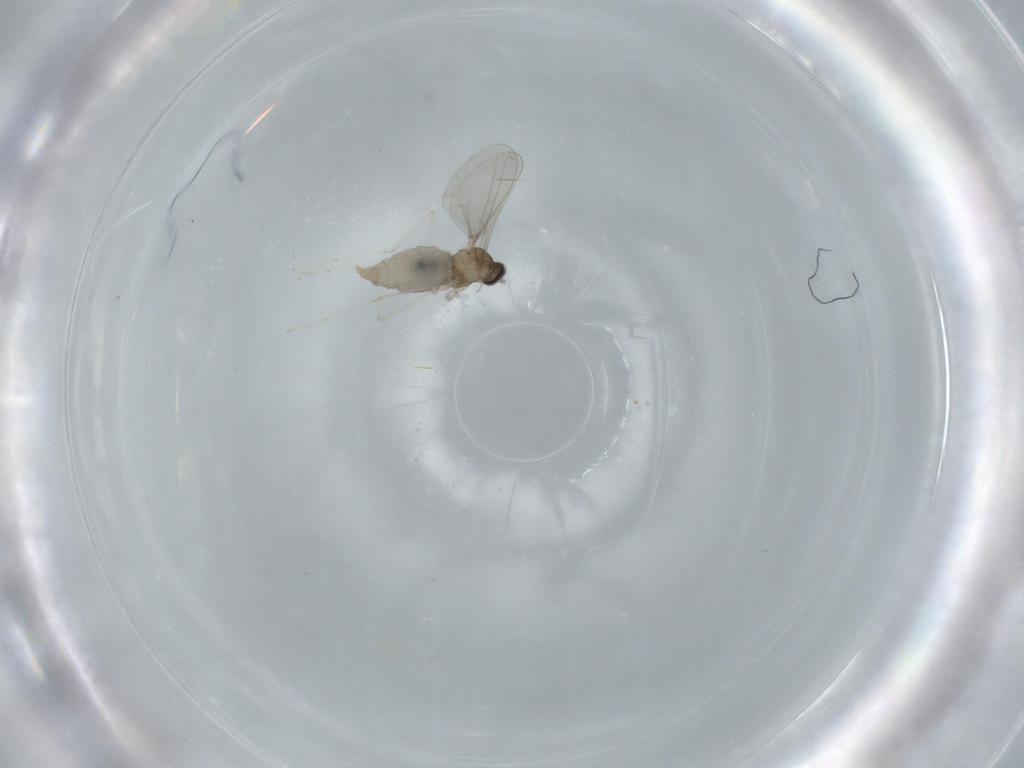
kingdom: Animalia
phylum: Arthropoda
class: Insecta
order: Diptera
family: Cecidomyiidae
